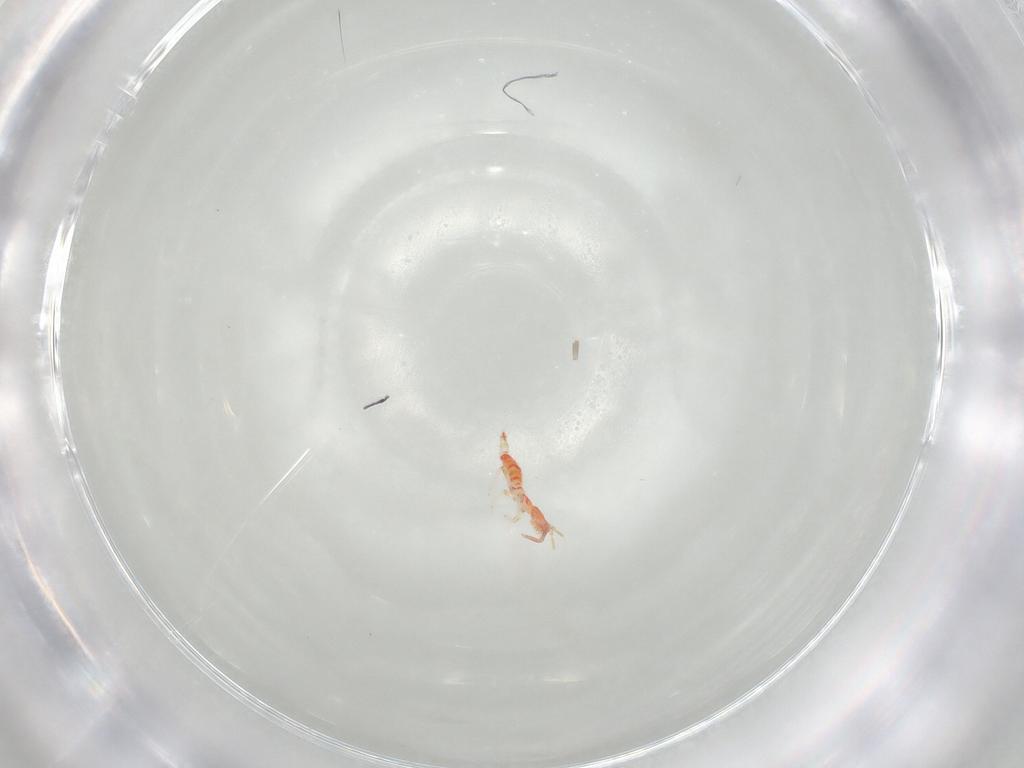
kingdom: Animalia
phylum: Arthropoda
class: Insecta
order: Thysanoptera
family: Aeolothripidae
